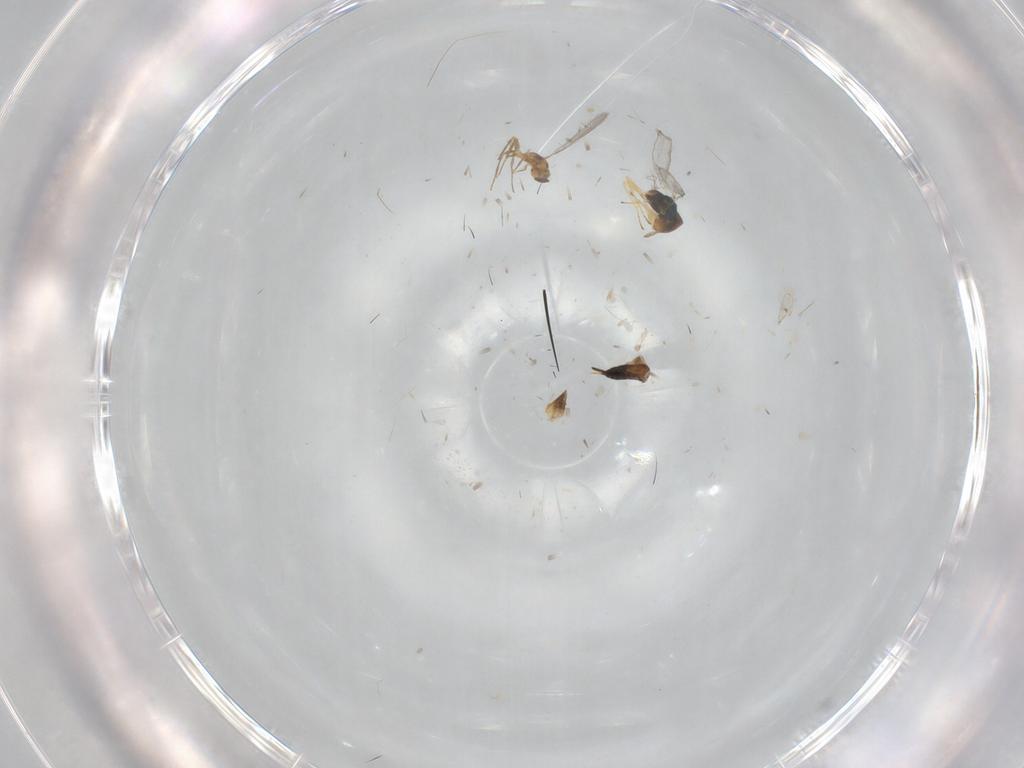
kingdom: Animalia
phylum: Arthropoda
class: Insecta
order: Hymenoptera
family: Eulophidae
